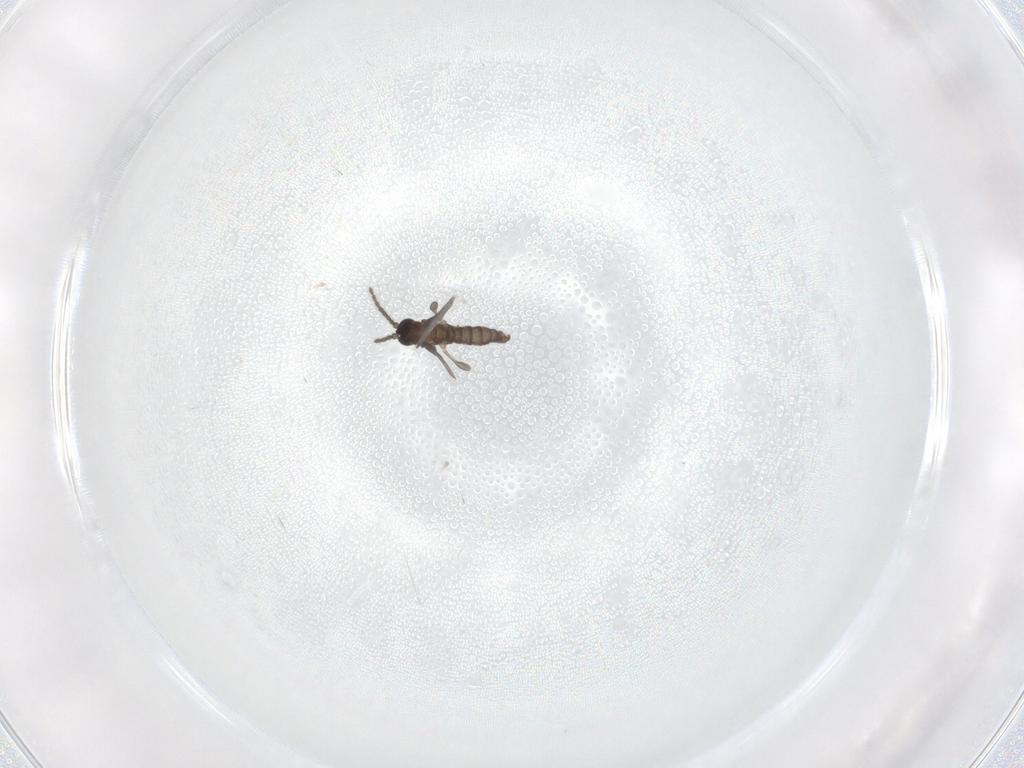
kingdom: Animalia
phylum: Arthropoda
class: Insecta
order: Diptera
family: Sciaridae
